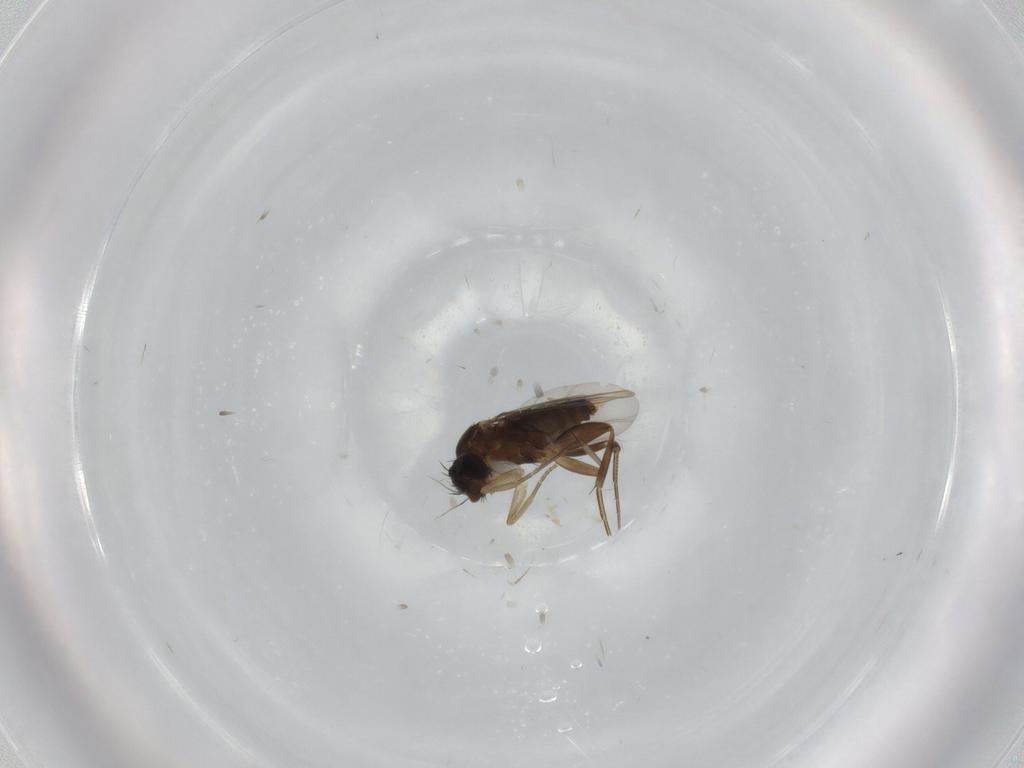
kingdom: Animalia
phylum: Arthropoda
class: Insecta
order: Diptera
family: Phoridae
